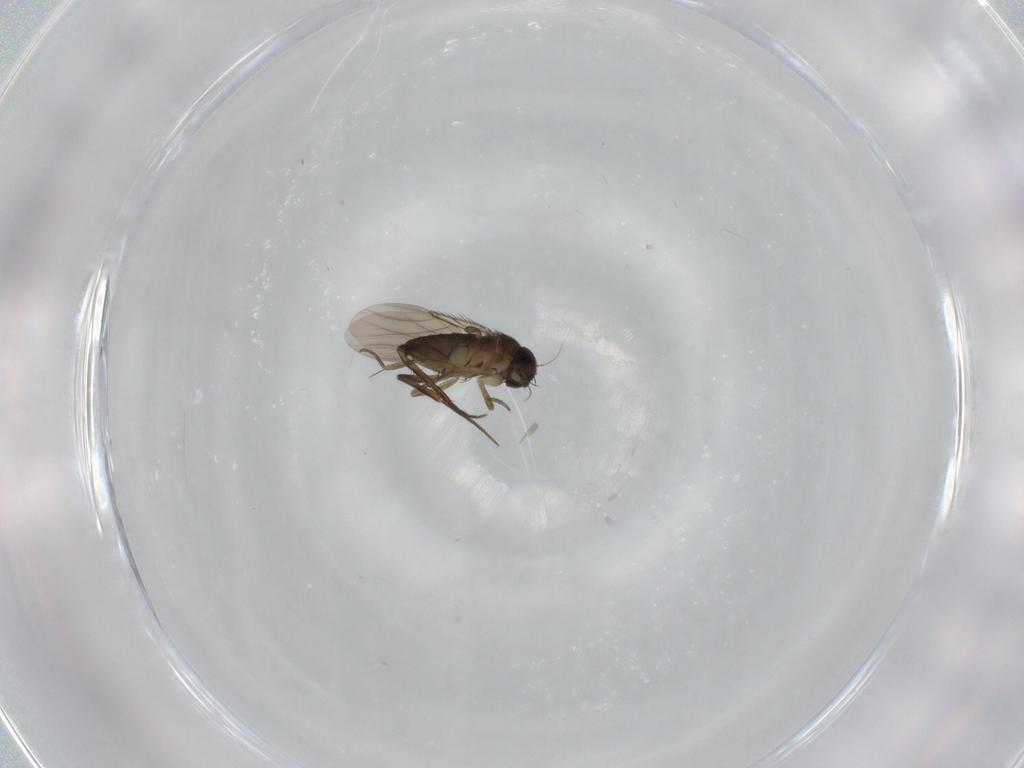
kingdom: Animalia
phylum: Arthropoda
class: Insecta
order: Diptera
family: Phoridae
